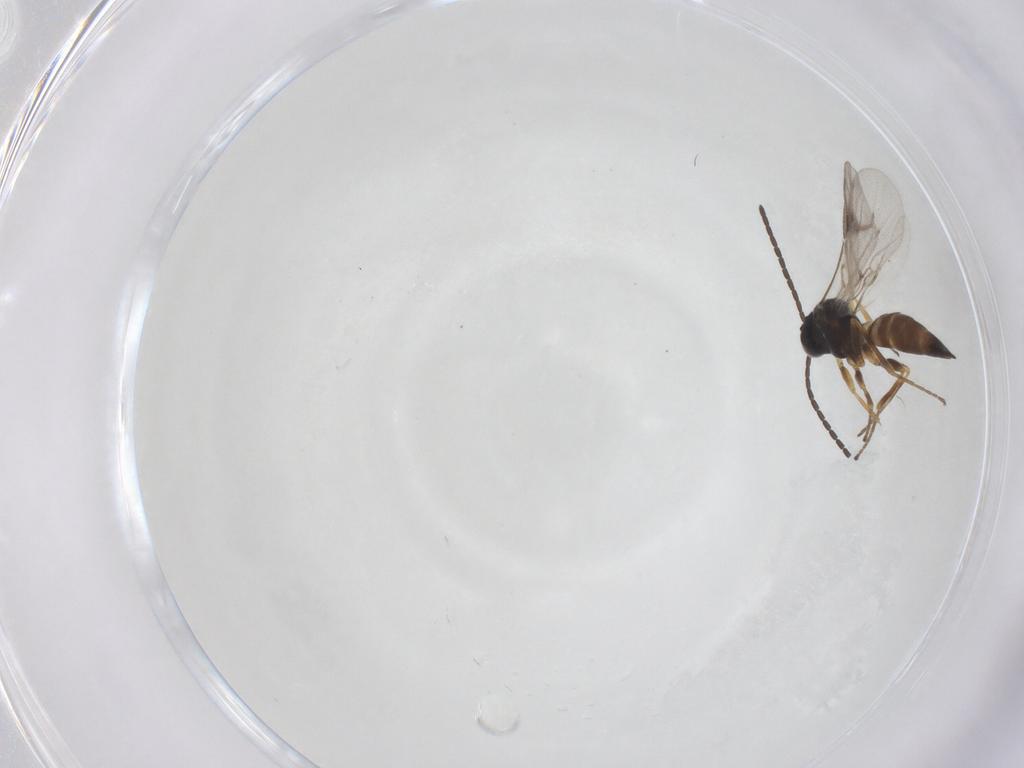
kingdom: Animalia
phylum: Arthropoda
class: Insecta
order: Hymenoptera
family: Braconidae
